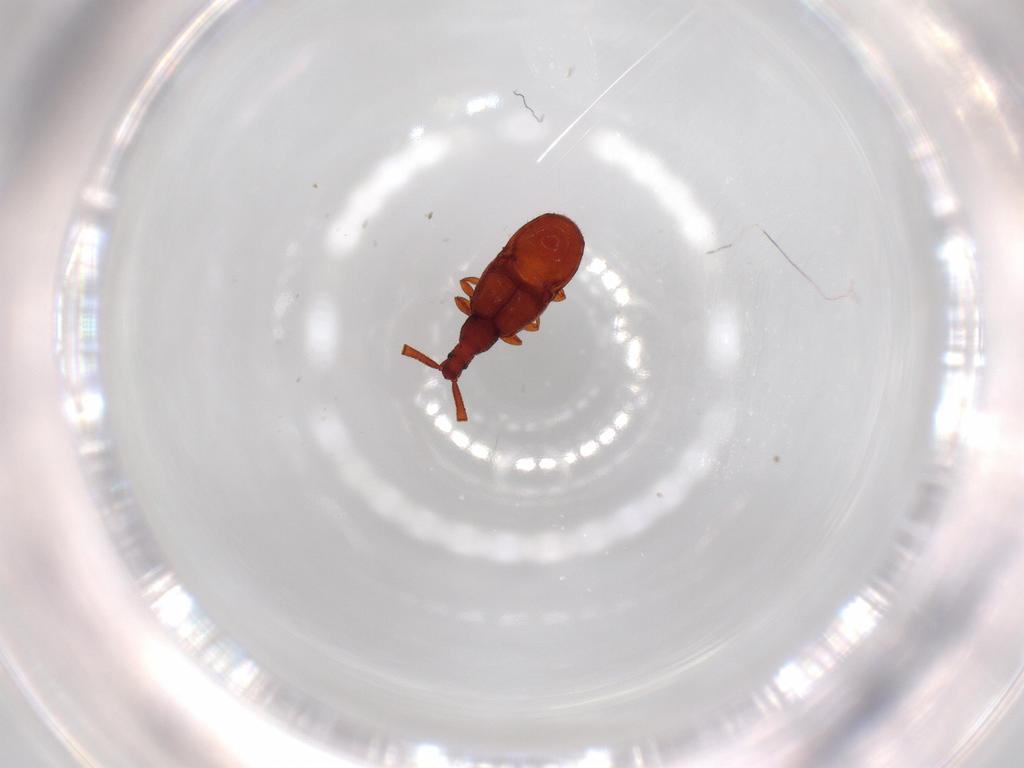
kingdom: Animalia
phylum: Arthropoda
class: Insecta
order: Coleoptera
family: Staphylinidae
